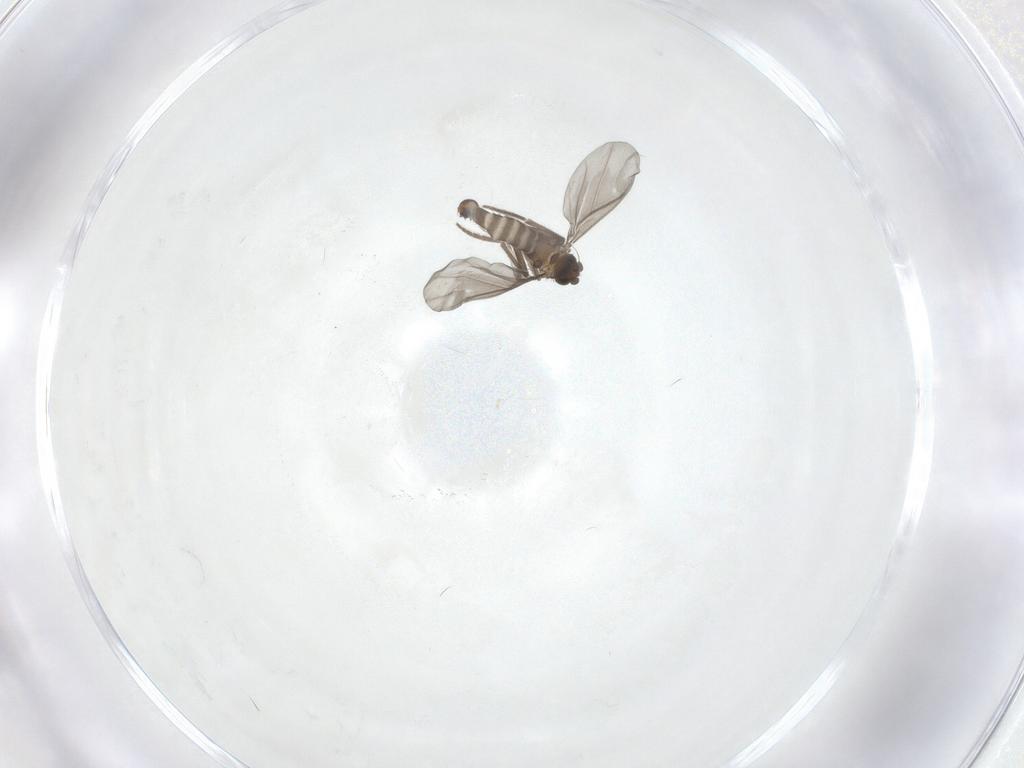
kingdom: Animalia
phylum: Arthropoda
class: Insecta
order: Diptera
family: Phoridae
